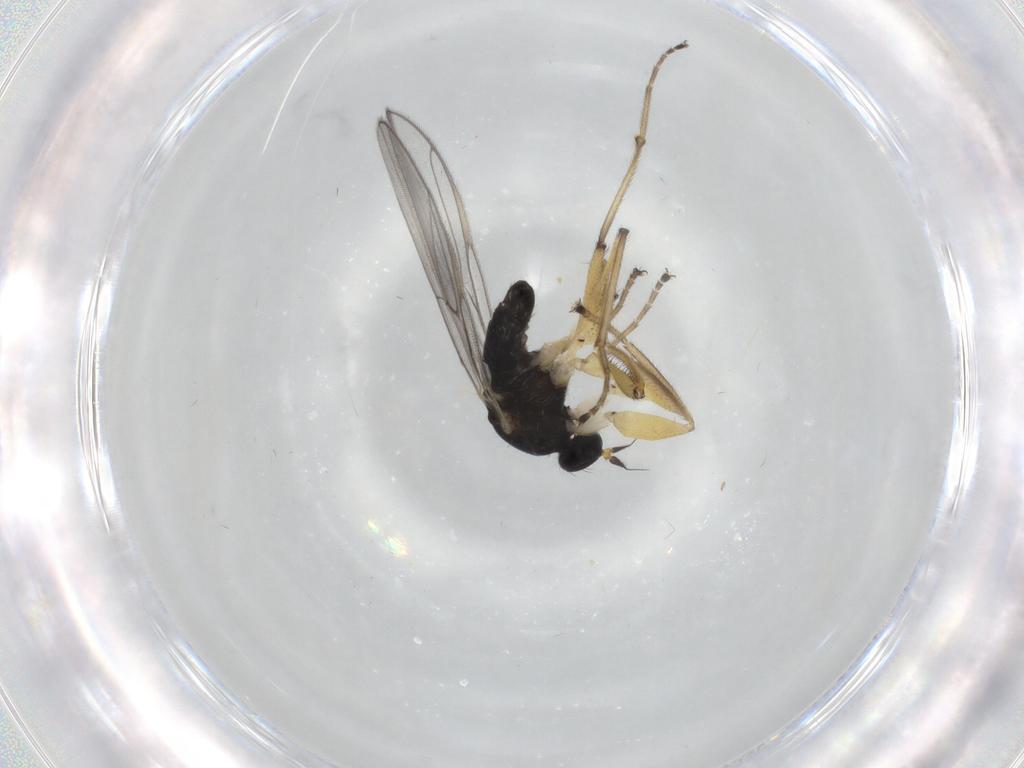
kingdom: Animalia
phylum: Arthropoda
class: Insecta
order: Diptera
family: Hybotidae
